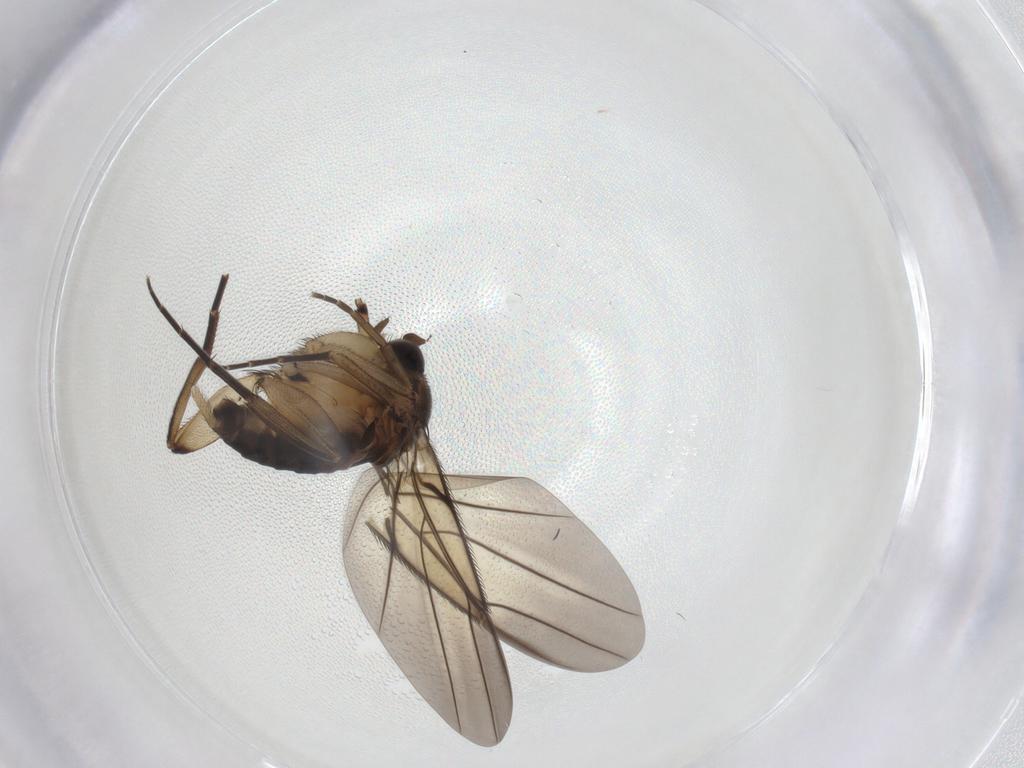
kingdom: Animalia
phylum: Arthropoda
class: Insecta
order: Diptera
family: Phoridae
